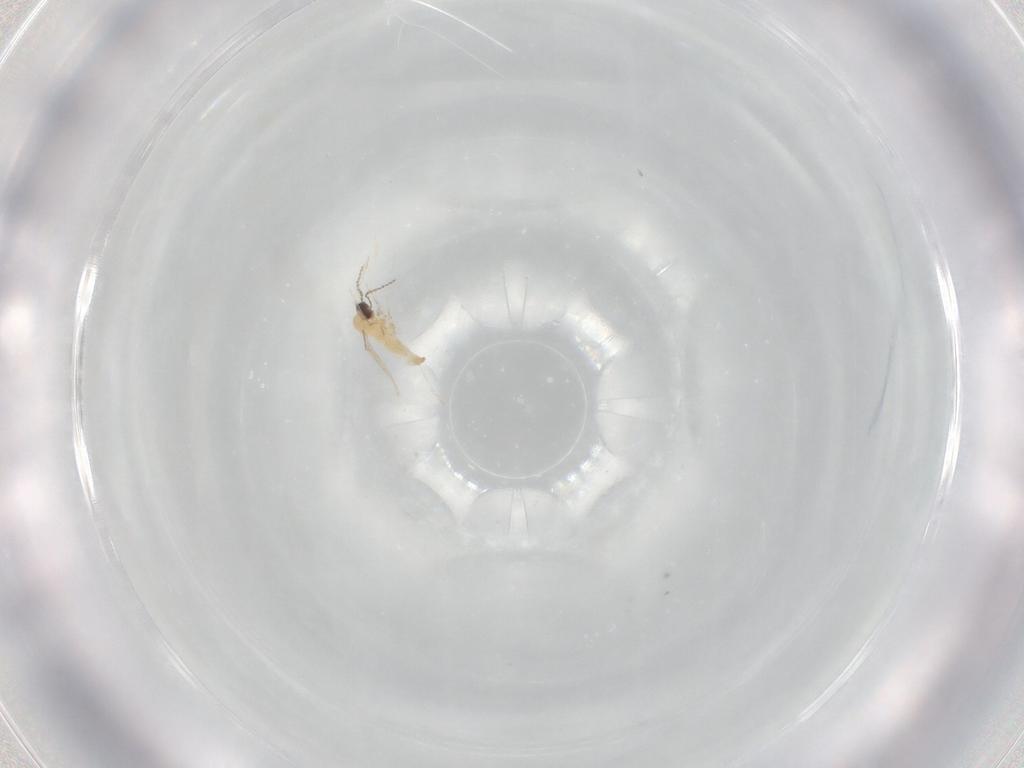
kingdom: Animalia
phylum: Arthropoda
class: Insecta
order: Diptera
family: Cecidomyiidae
